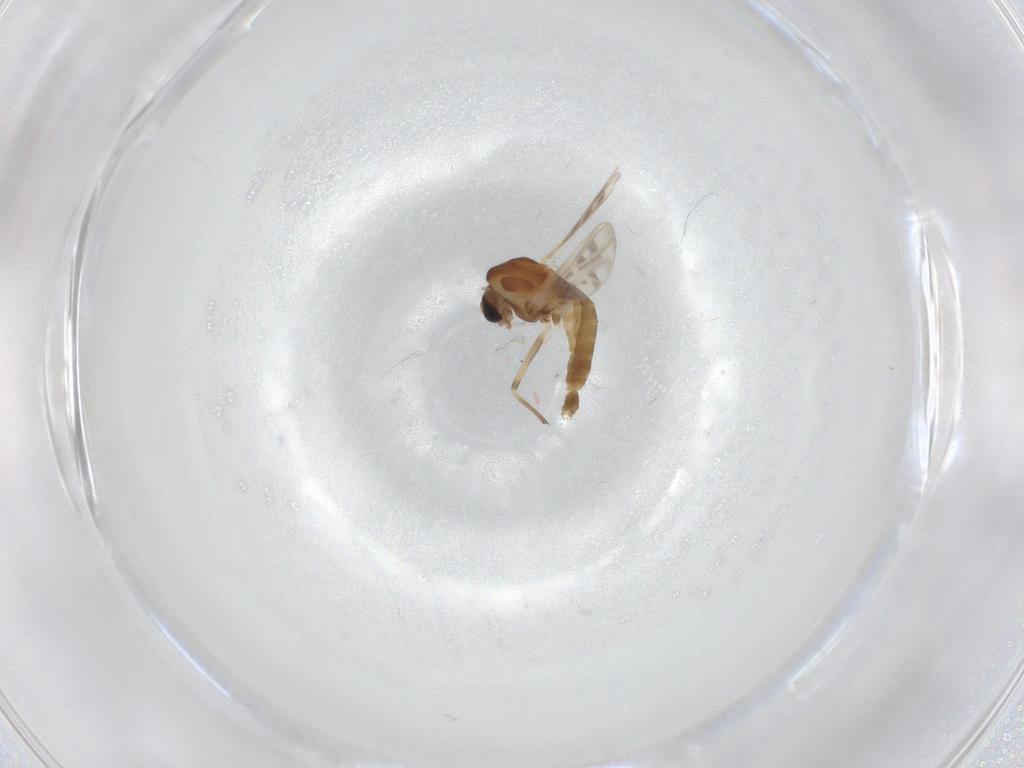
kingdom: Animalia
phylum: Arthropoda
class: Insecta
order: Diptera
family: Chironomidae
